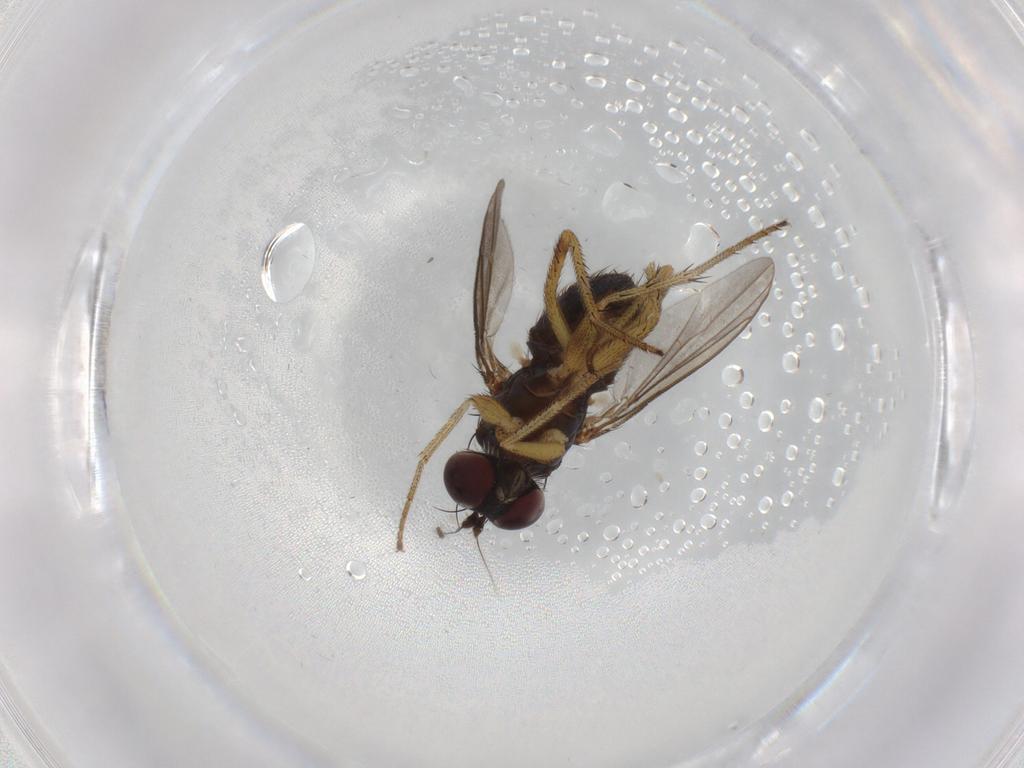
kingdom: Animalia
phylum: Arthropoda
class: Insecta
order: Diptera
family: Dolichopodidae
